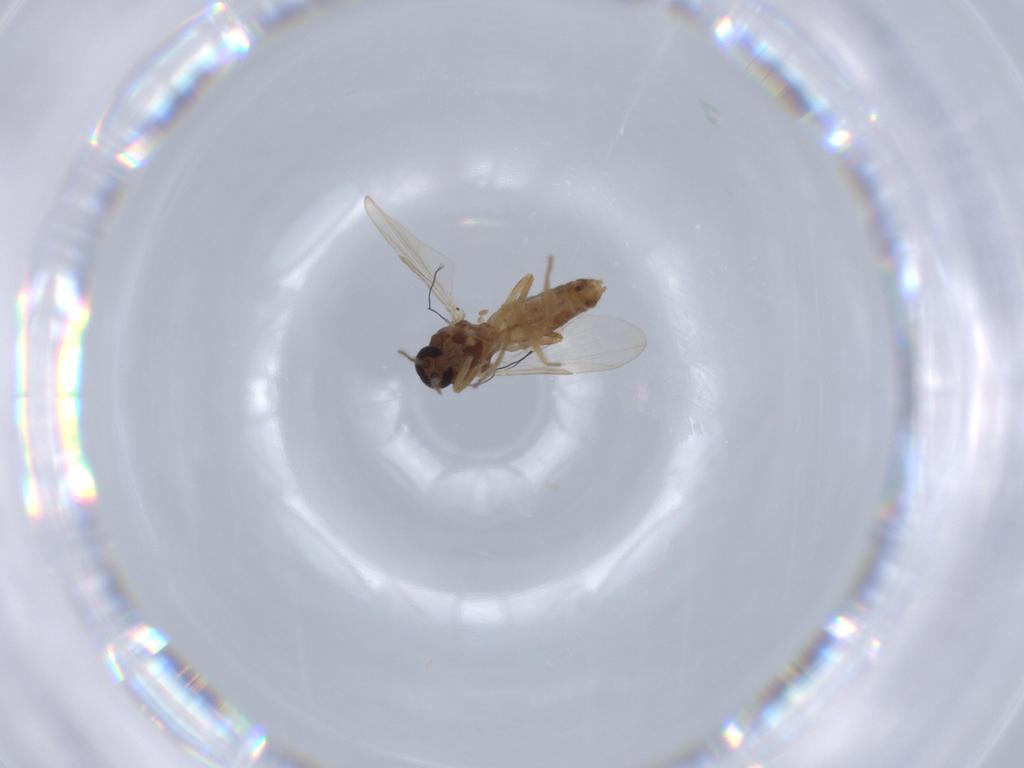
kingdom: Animalia
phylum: Arthropoda
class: Insecta
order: Diptera
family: Ceratopogonidae
